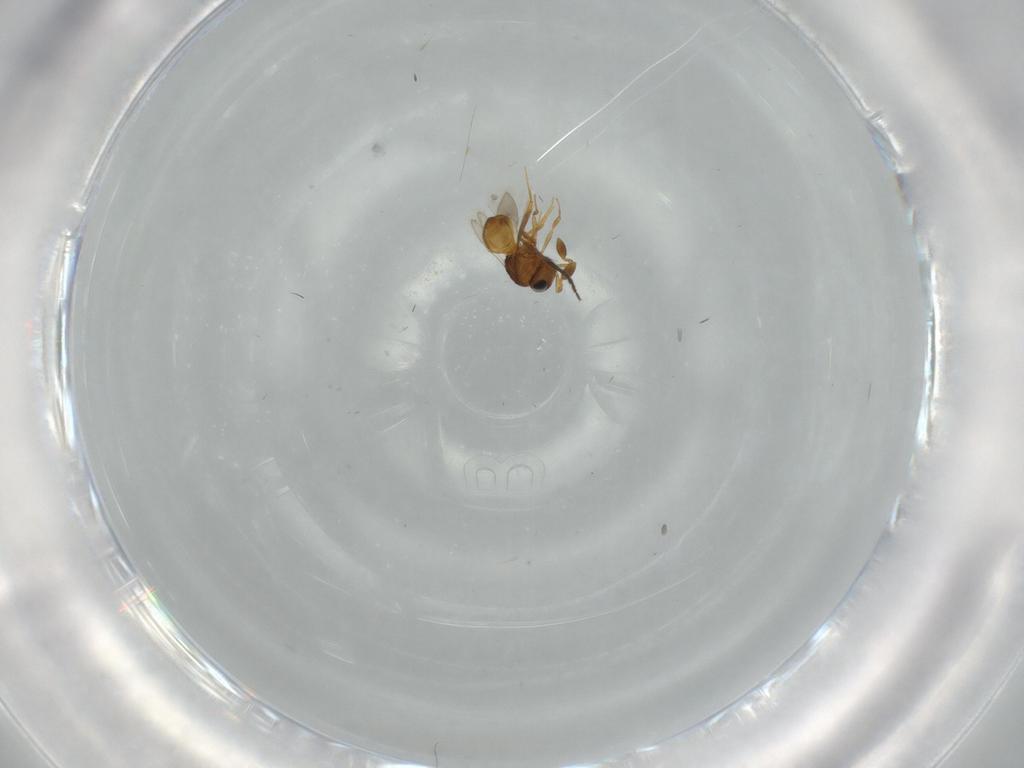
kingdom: Animalia
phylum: Arthropoda
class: Insecta
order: Hymenoptera
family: Scelionidae
